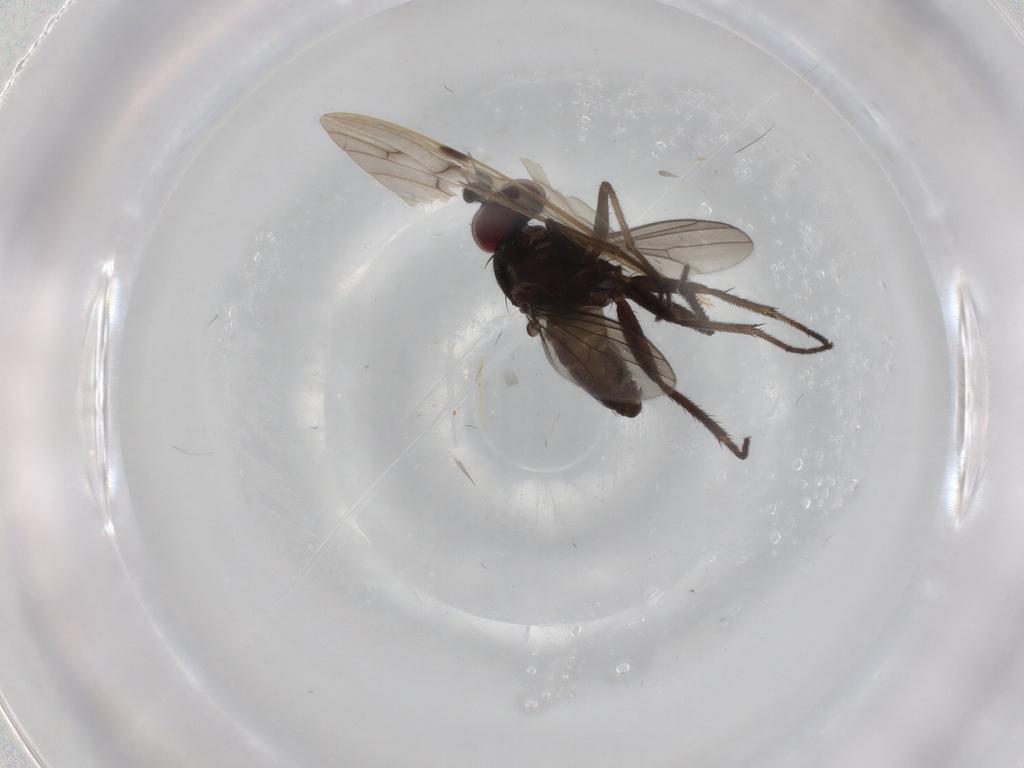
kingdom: Animalia
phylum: Arthropoda
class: Insecta
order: Diptera
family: Dolichopodidae
